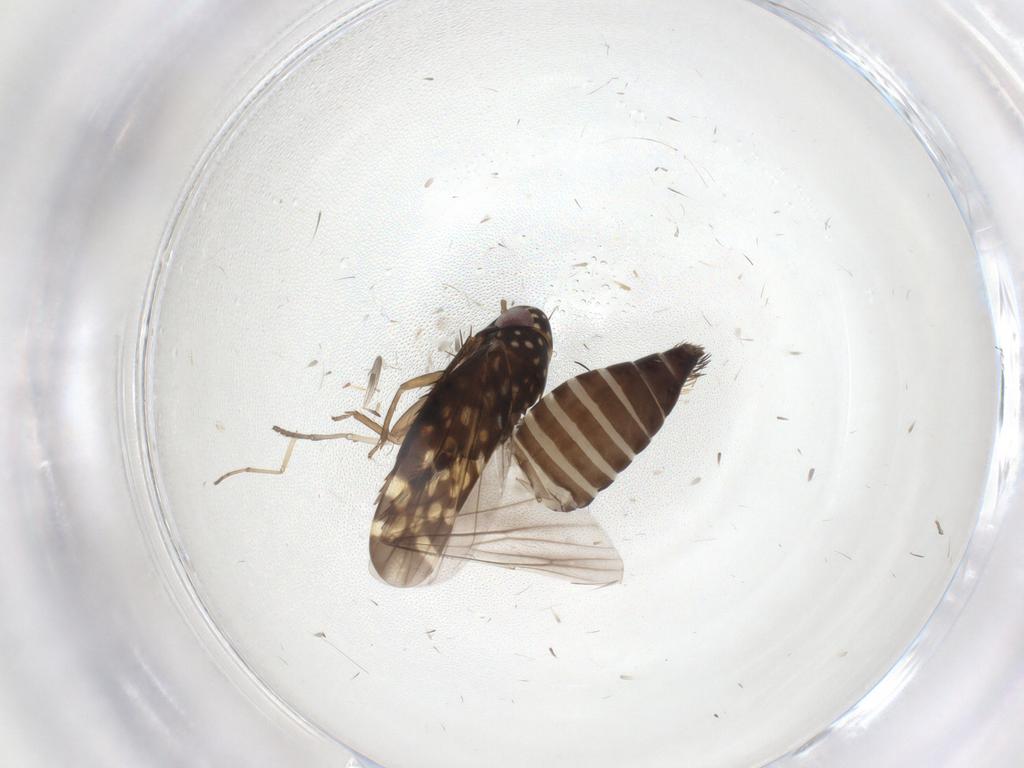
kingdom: Animalia
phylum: Arthropoda
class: Insecta
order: Hemiptera
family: Cicadellidae
